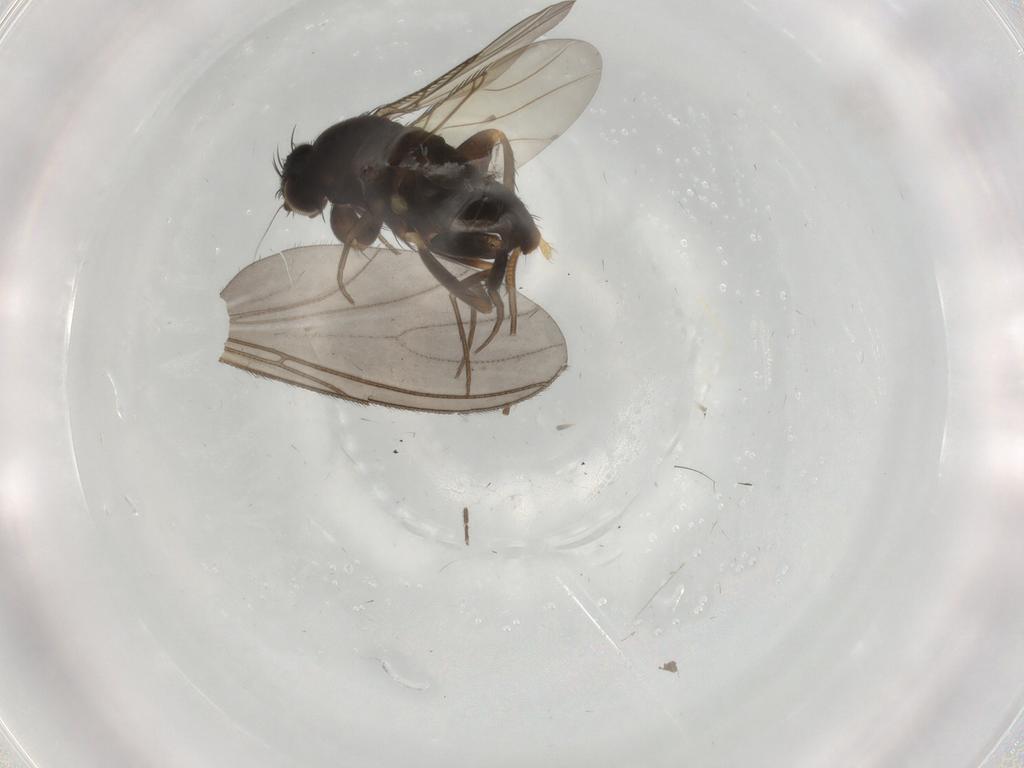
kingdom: Animalia
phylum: Arthropoda
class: Insecta
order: Diptera
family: Phoridae
